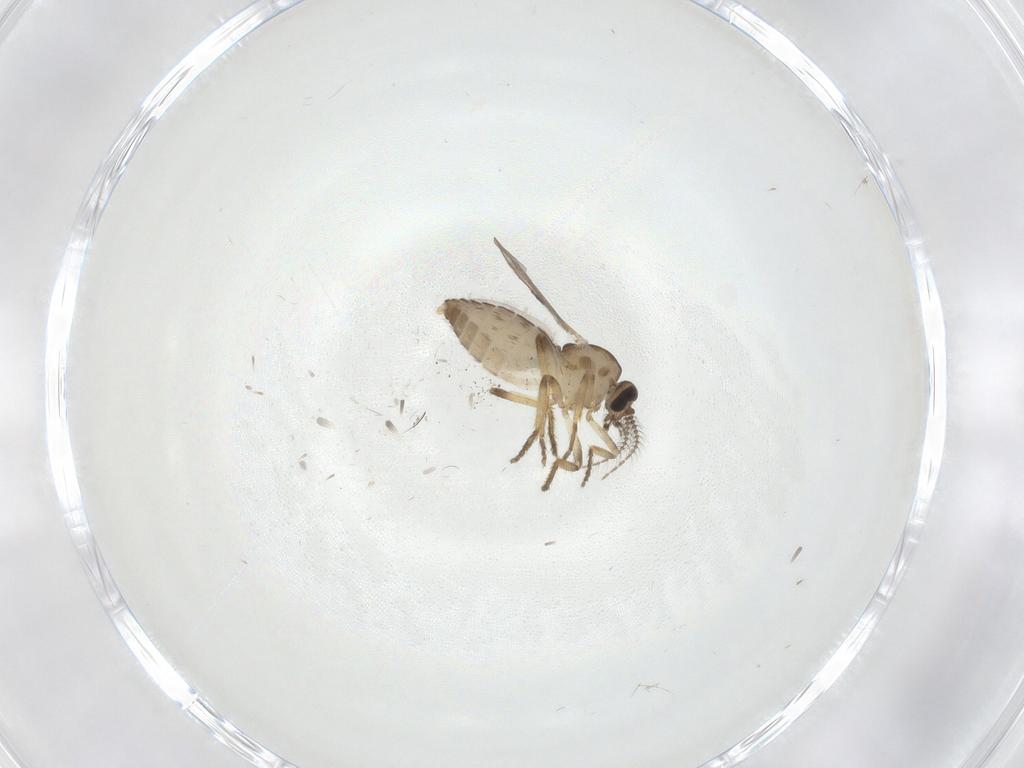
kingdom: Animalia
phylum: Arthropoda
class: Insecta
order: Diptera
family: Ceratopogonidae
